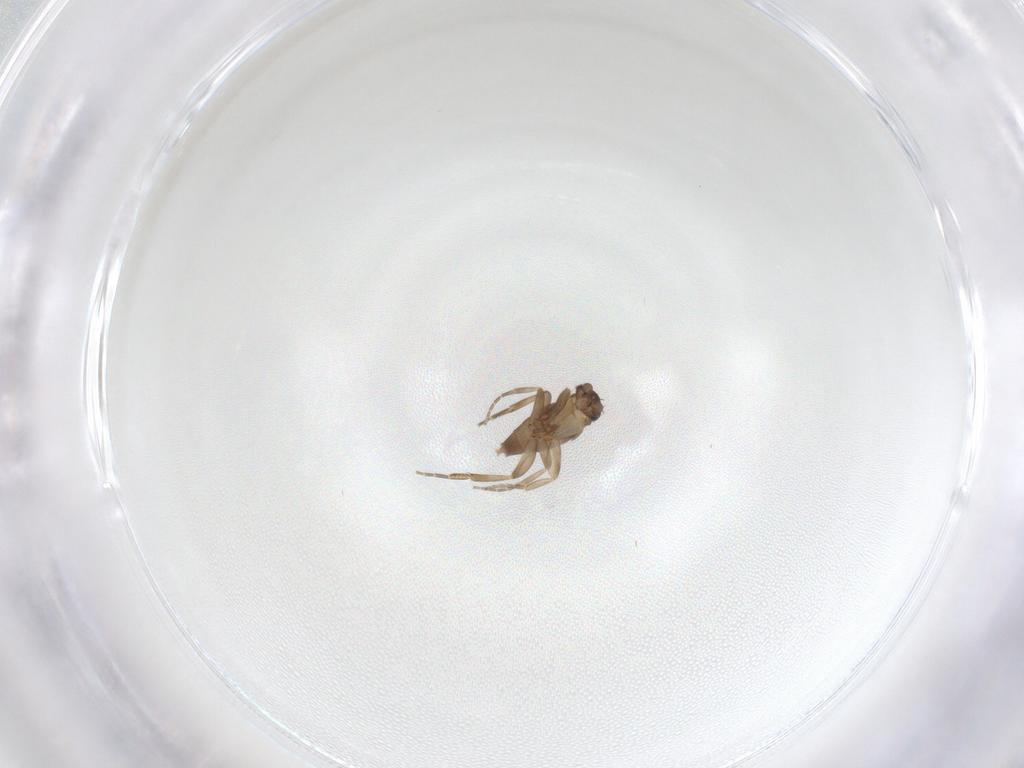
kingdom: Animalia
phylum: Arthropoda
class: Insecta
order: Diptera
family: Phoridae
